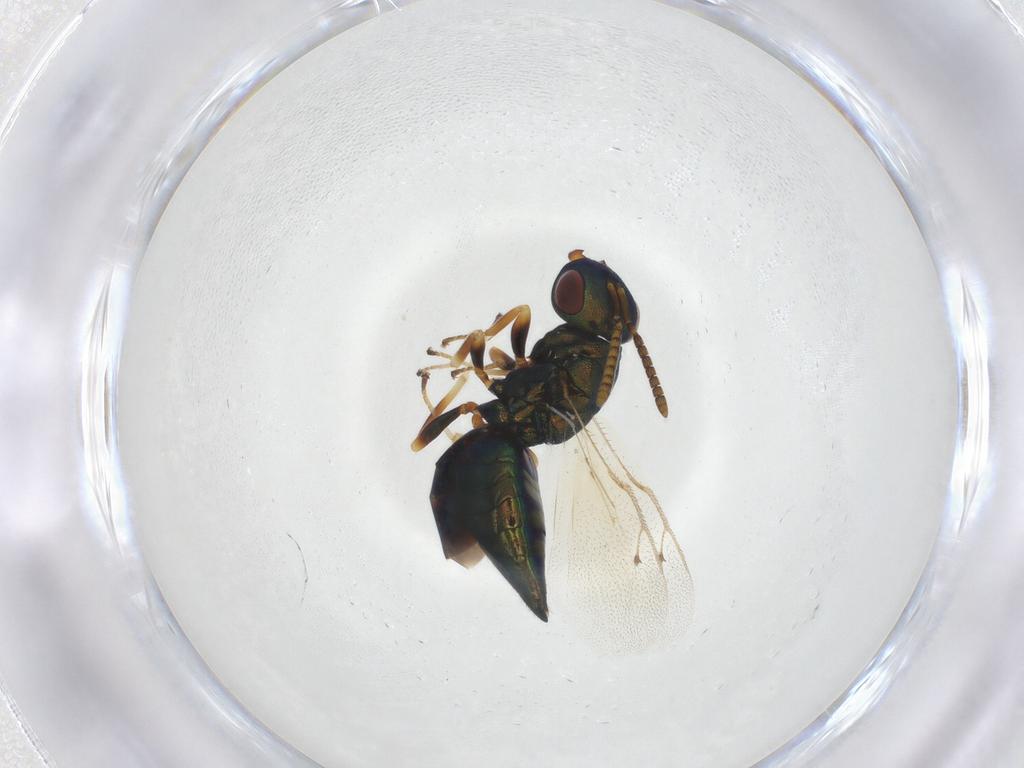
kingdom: Animalia
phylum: Arthropoda
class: Insecta
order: Hymenoptera
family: Pteromalidae
